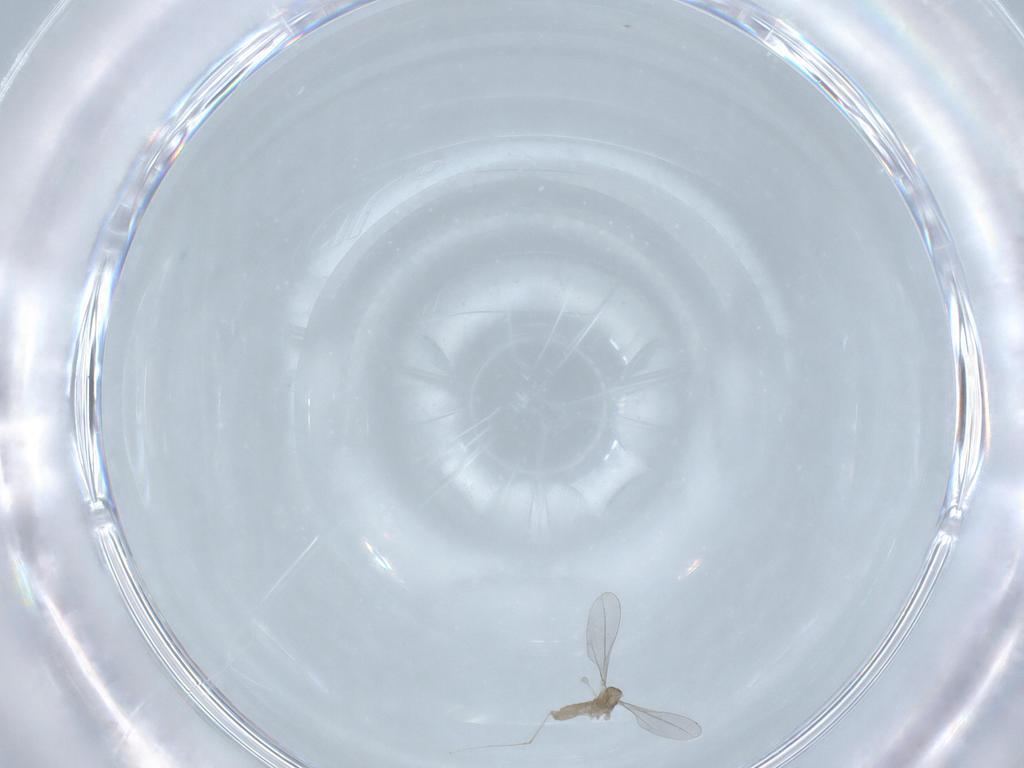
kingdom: Animalia
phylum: Arthropoda
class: Insecta
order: Diptera
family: Cecidomyiidae
